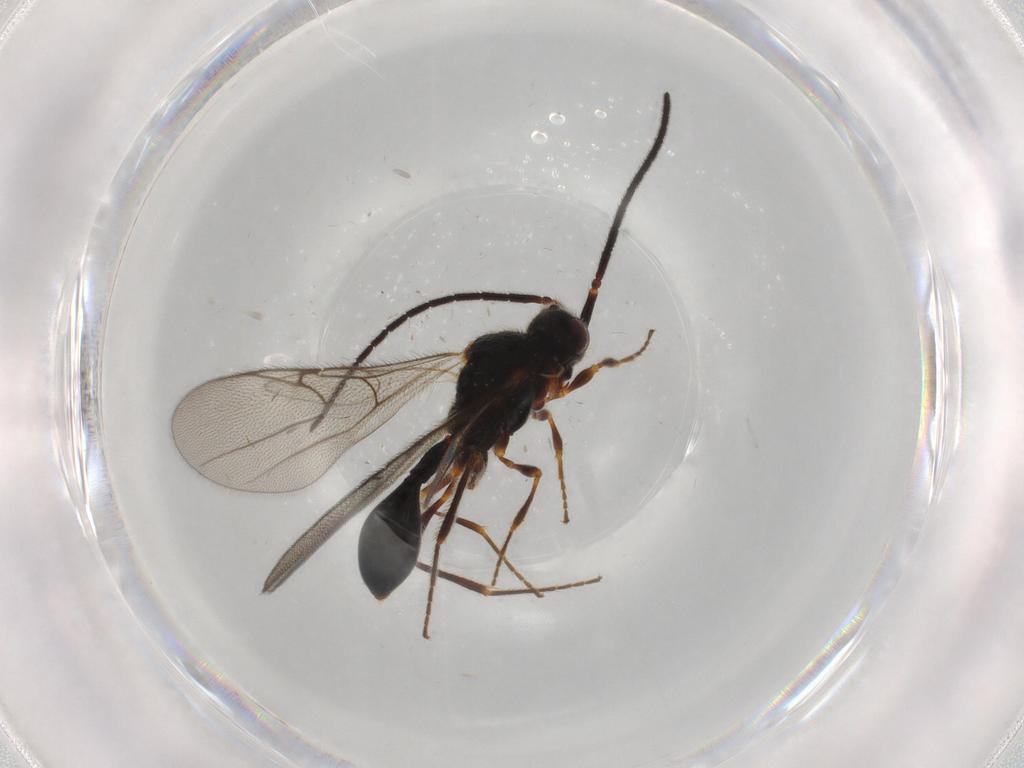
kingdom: Animalia
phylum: Arthropoda
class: Insecta
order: Hymenoptera
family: Diapriidae
